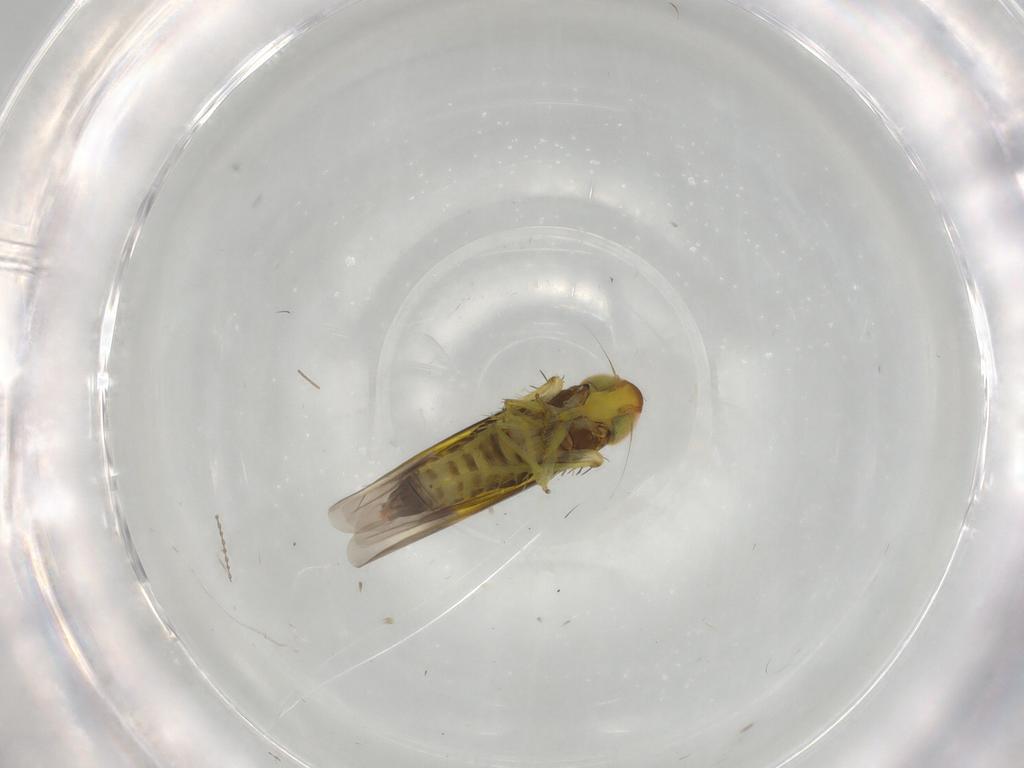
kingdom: Animalia
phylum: Arthropoda
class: Insecta
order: Hemiptera
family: Cicadellidae
